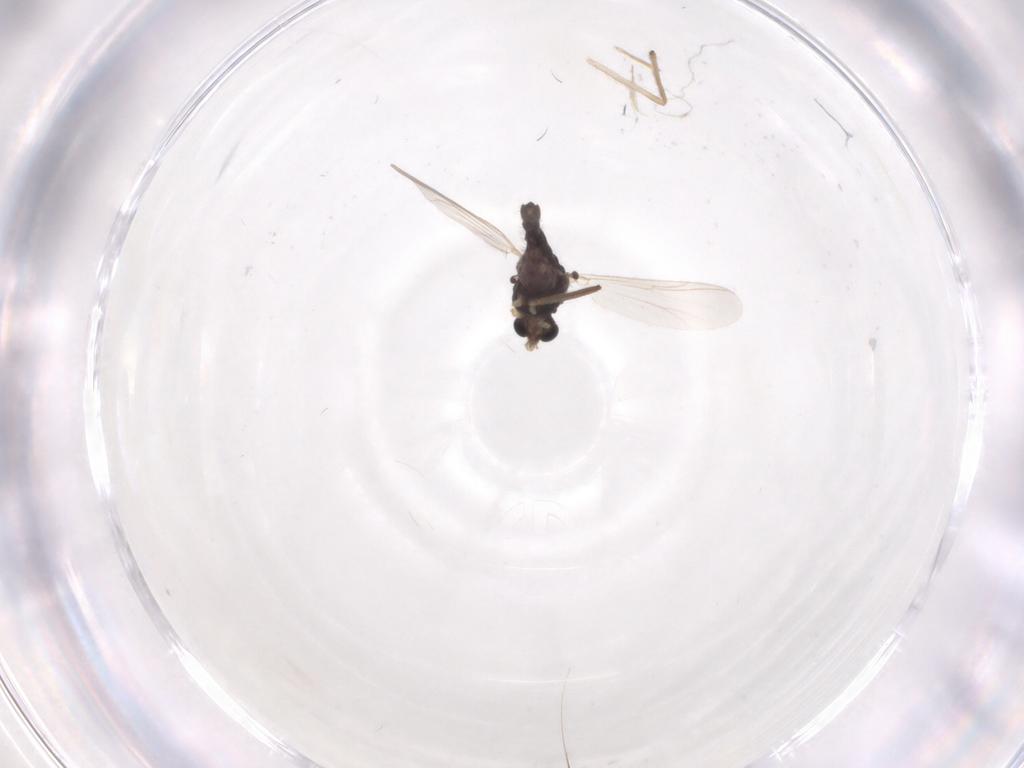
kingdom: Animalia
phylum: Arthropoda
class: Insecta
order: Diptera
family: Chironomidae
